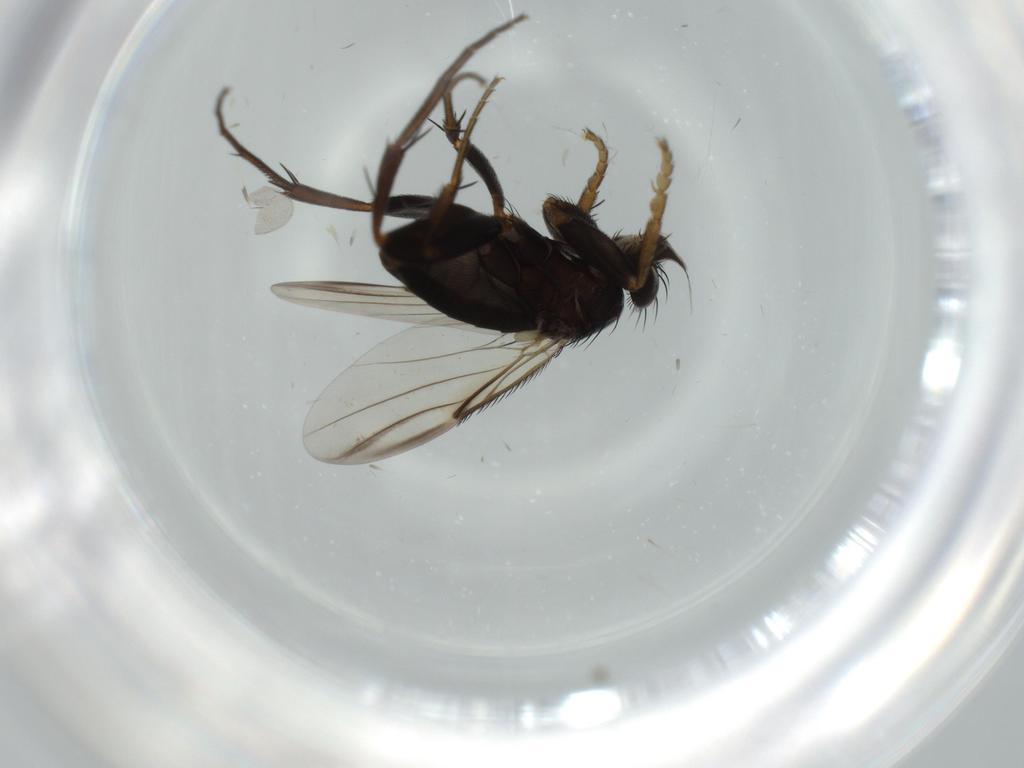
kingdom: Animalia
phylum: Arthropoda
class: Insecta
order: Diptera
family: Phoridae
